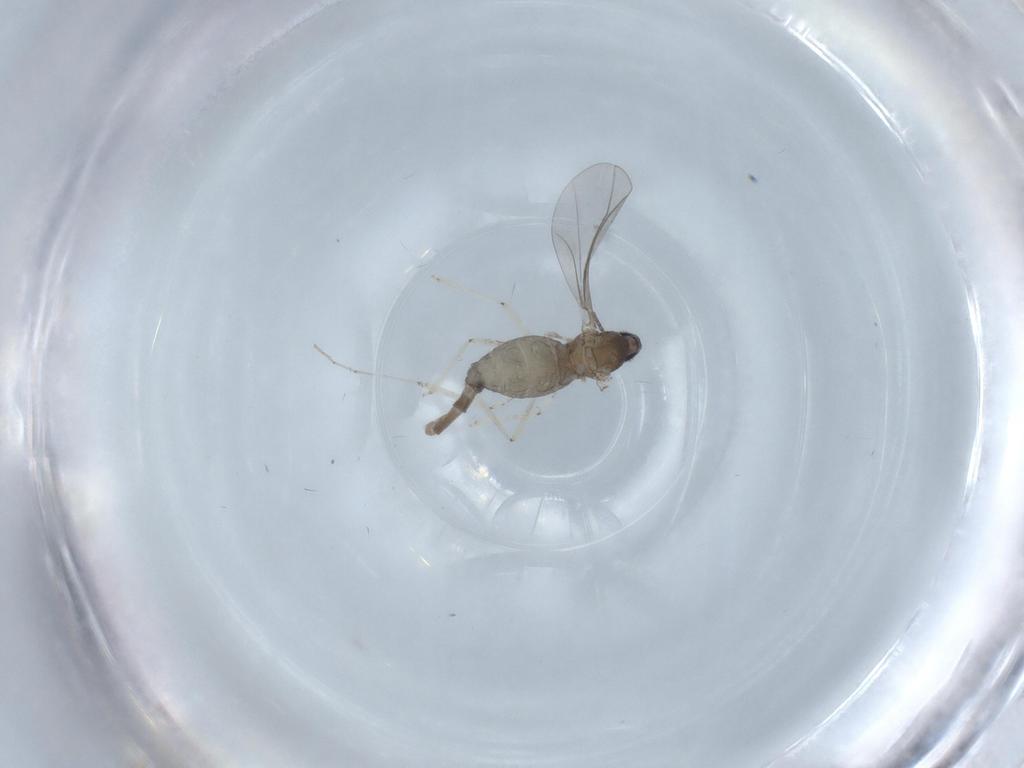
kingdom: Animalia
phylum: Arthropoda
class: Insecta
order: Diptera
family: Cecidomyiidae
